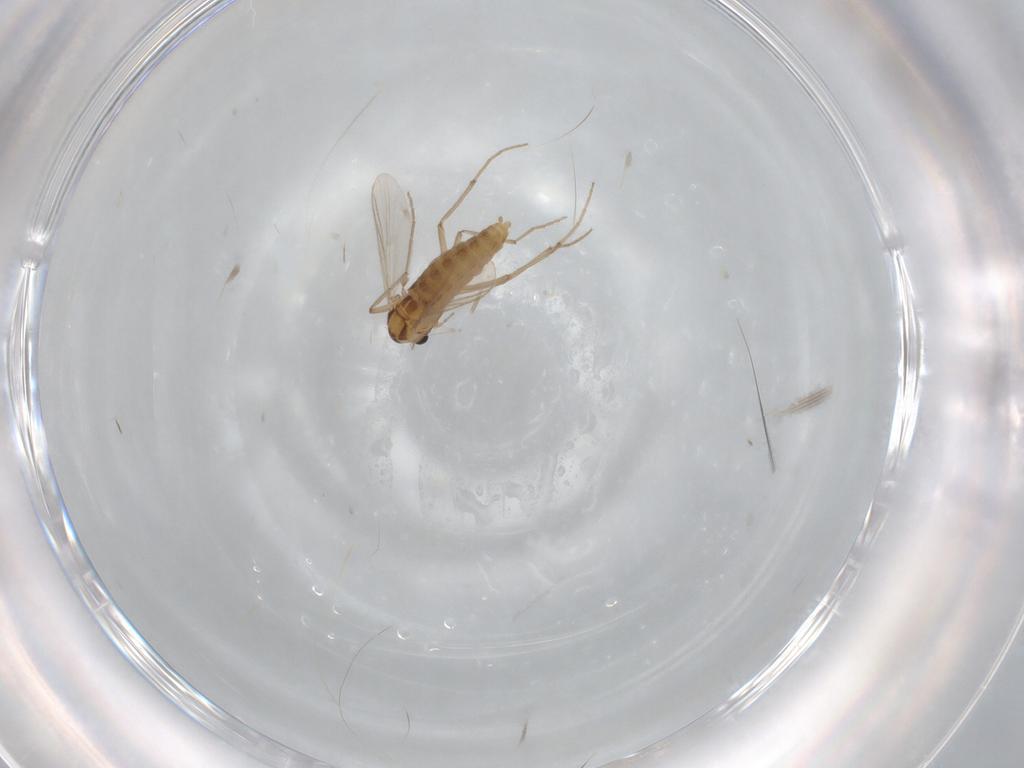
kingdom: Animalia
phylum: Arthropoda
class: Insecta
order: Diptera
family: Chironomidae
